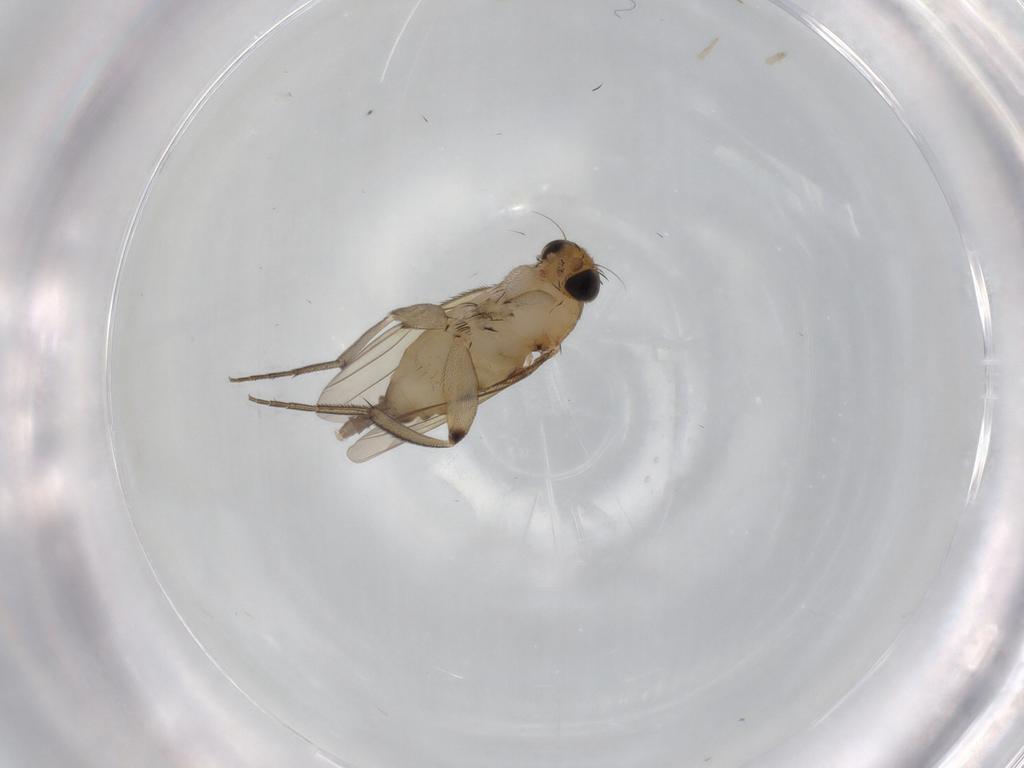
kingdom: Animalia
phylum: Arthropoda
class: Insecta
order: Diptera
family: Phoridae
